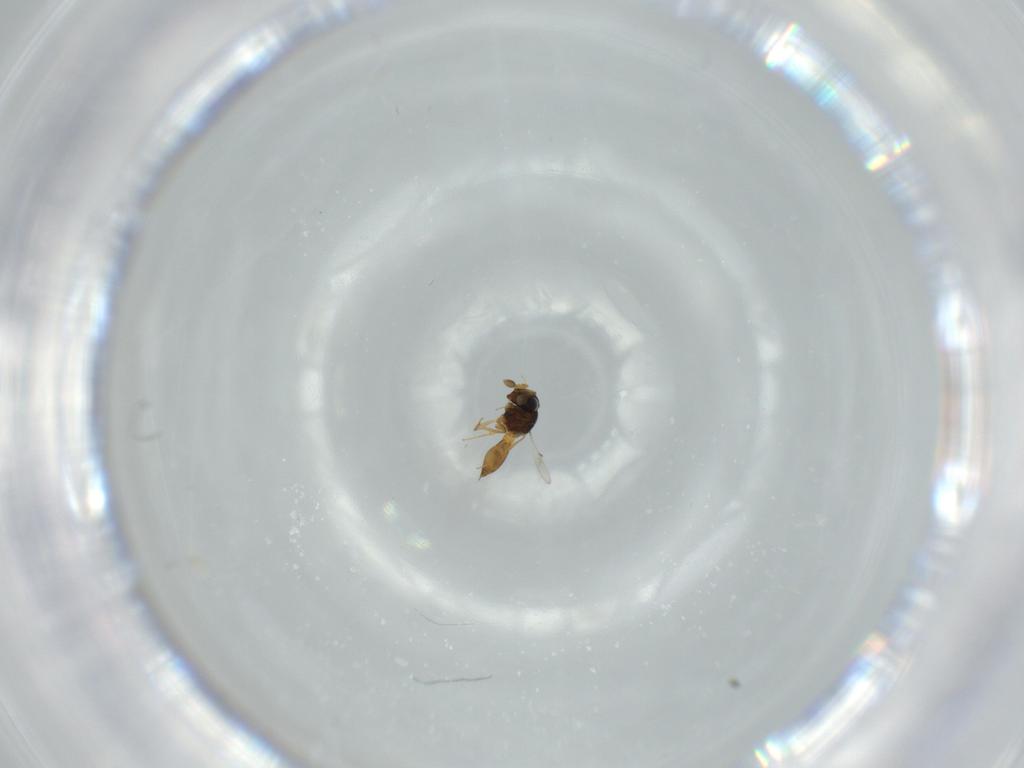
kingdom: Animalia
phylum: Arthropoda
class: Insecta
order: Hymenoptera
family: Scelionidae
